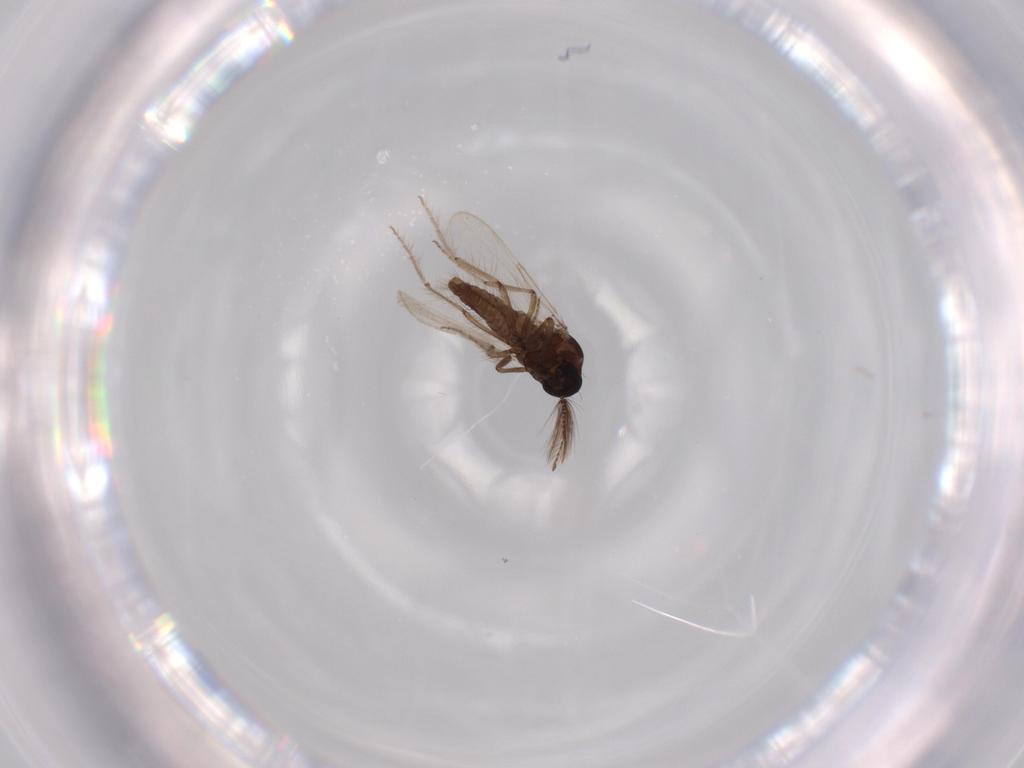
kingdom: Animalia
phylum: Arthropoda
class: Insecta
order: Diptera
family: Ceratopogonidae
